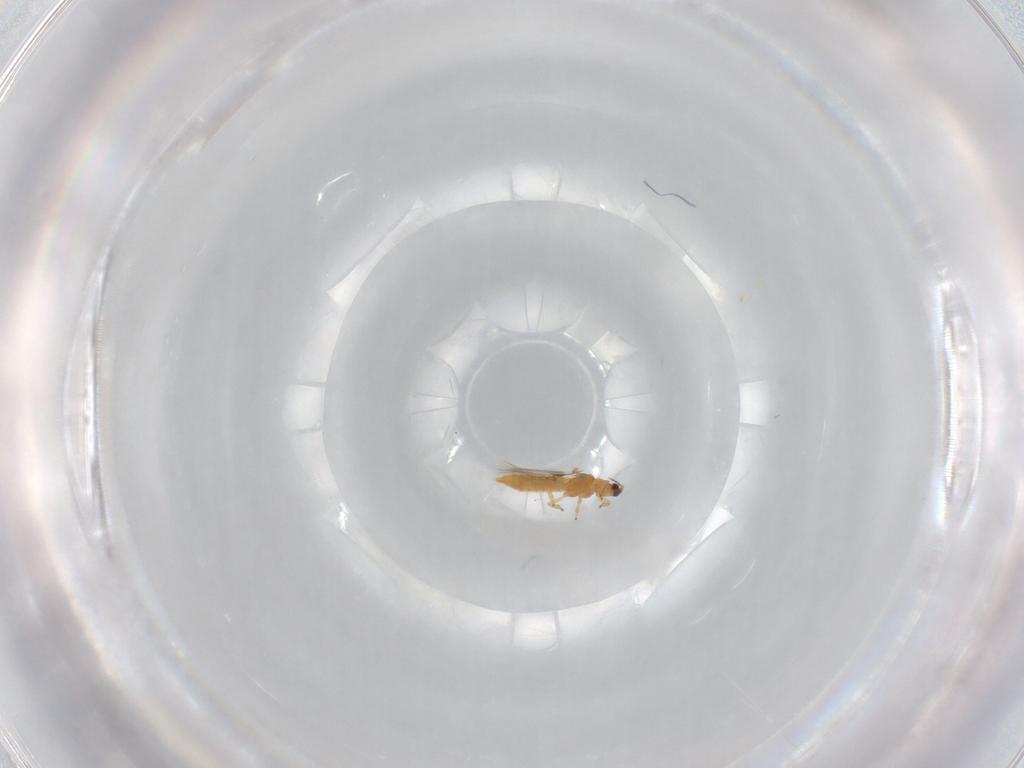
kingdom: Animalia
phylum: Arthropoda
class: Insecta
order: Thysanoptera
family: Thripidae
